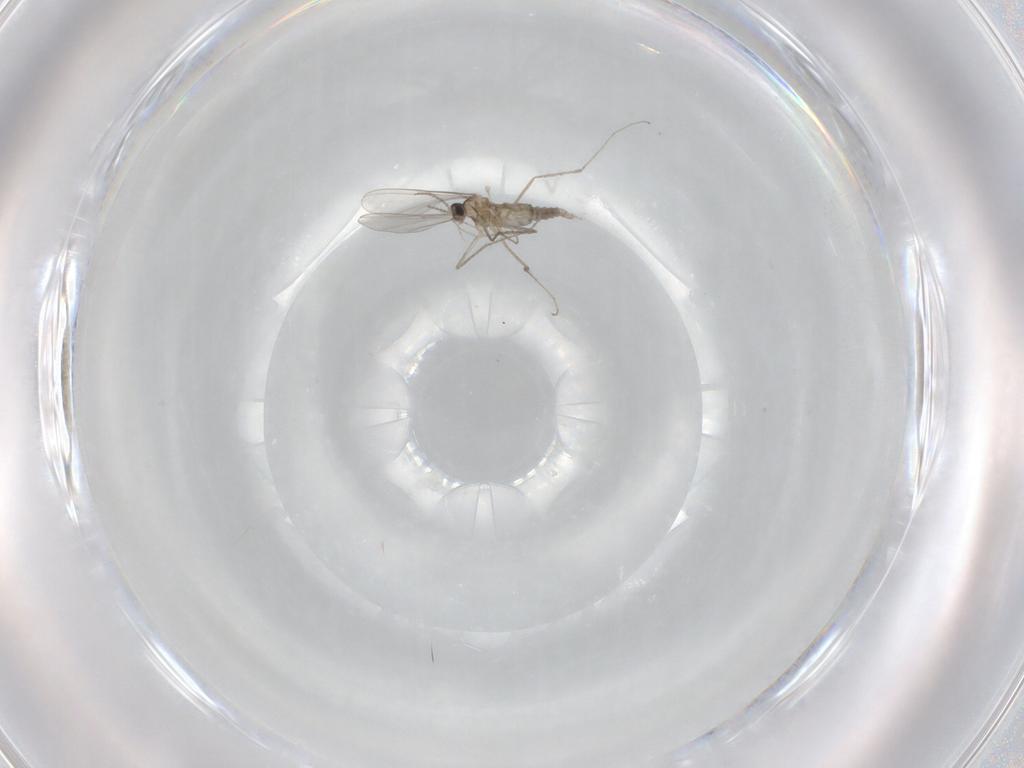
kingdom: Animalia
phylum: Arthropoda
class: Insecta
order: Diptera
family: Cecidomyiidae
